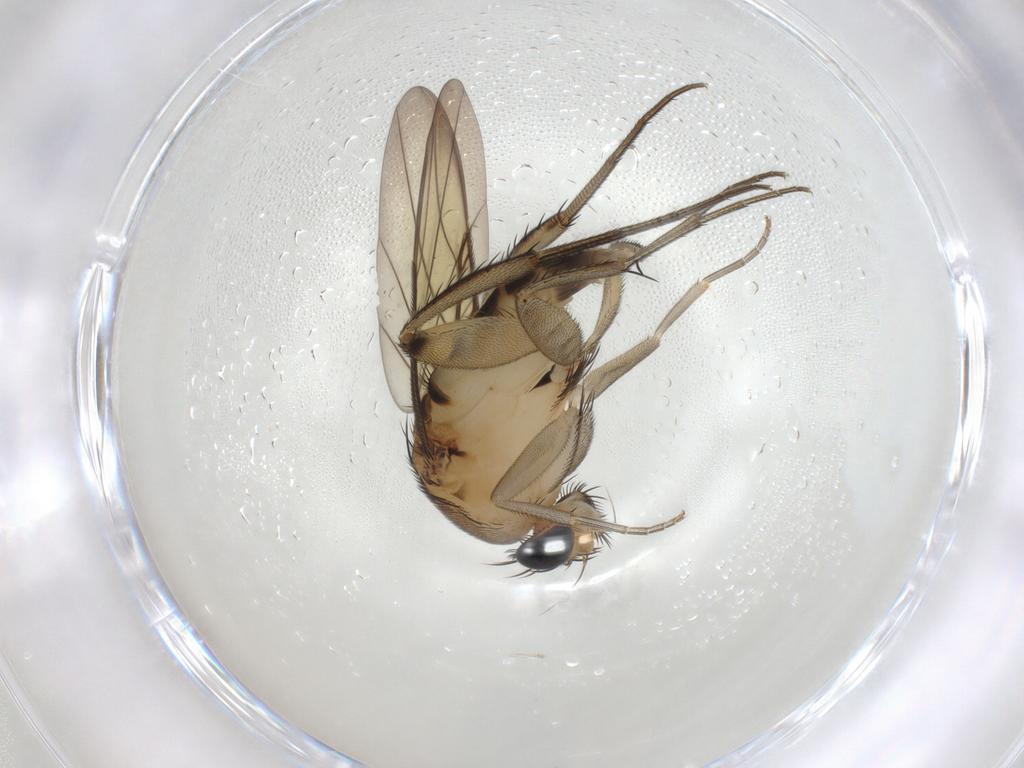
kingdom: Animalia
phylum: Arthropoda
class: Insecta
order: Diptera
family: Phoridae
